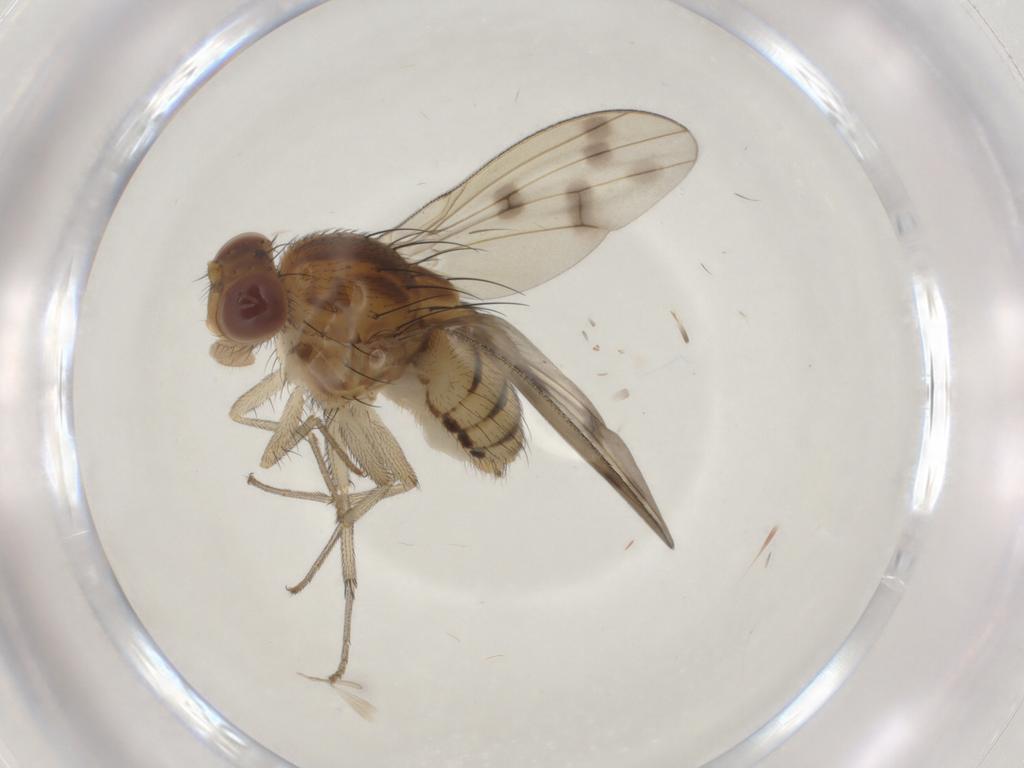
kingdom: Animalia
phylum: Arthropoda
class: Insecta
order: Diptera
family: Cecidomyiidae
